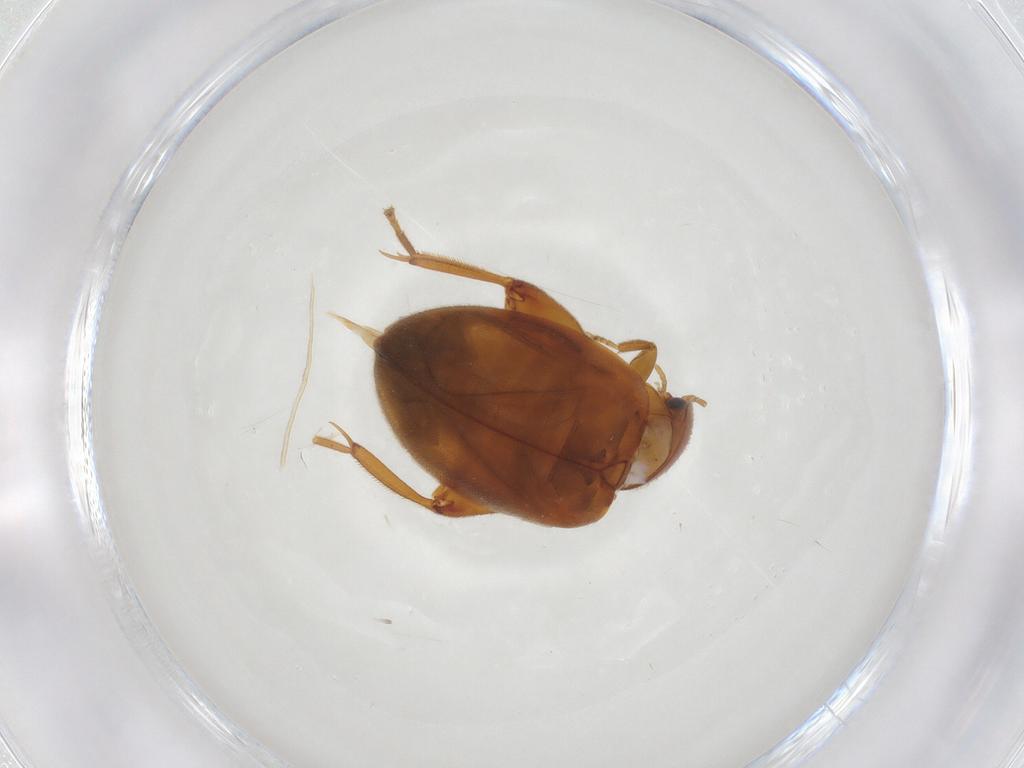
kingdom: Animalia
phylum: Arthropoda
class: Insecta
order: Coleoptera
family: Scirtidae
